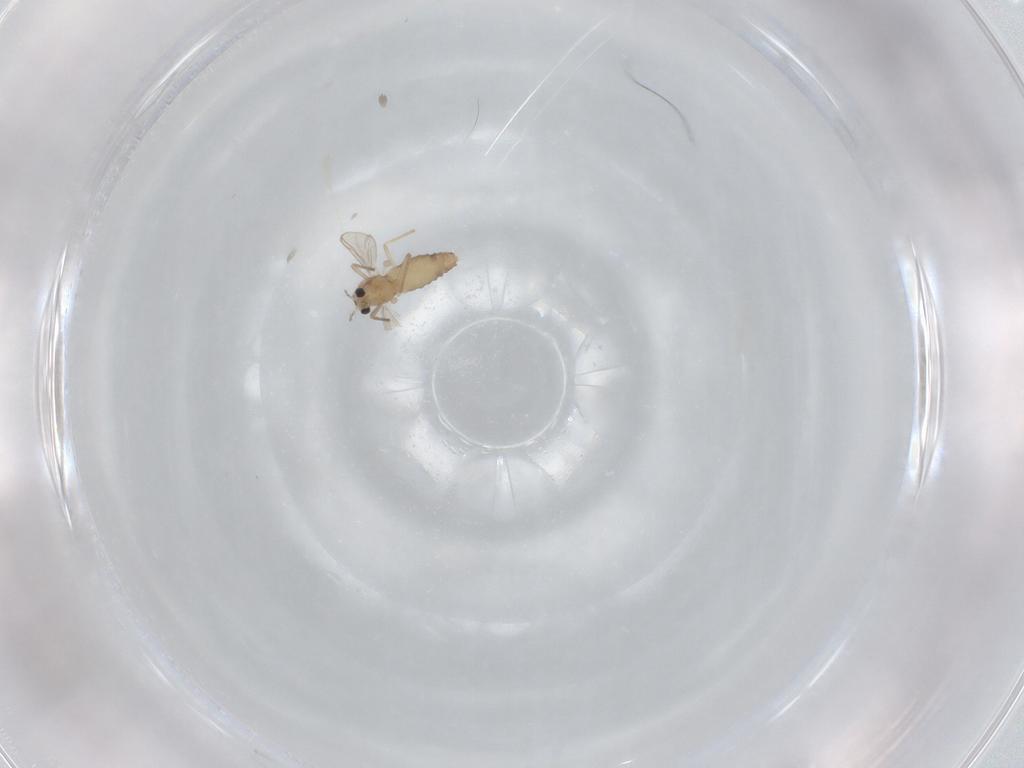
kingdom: Animalia
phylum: Arthropoda
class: Insecta
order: Diptera
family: Chironomidae
